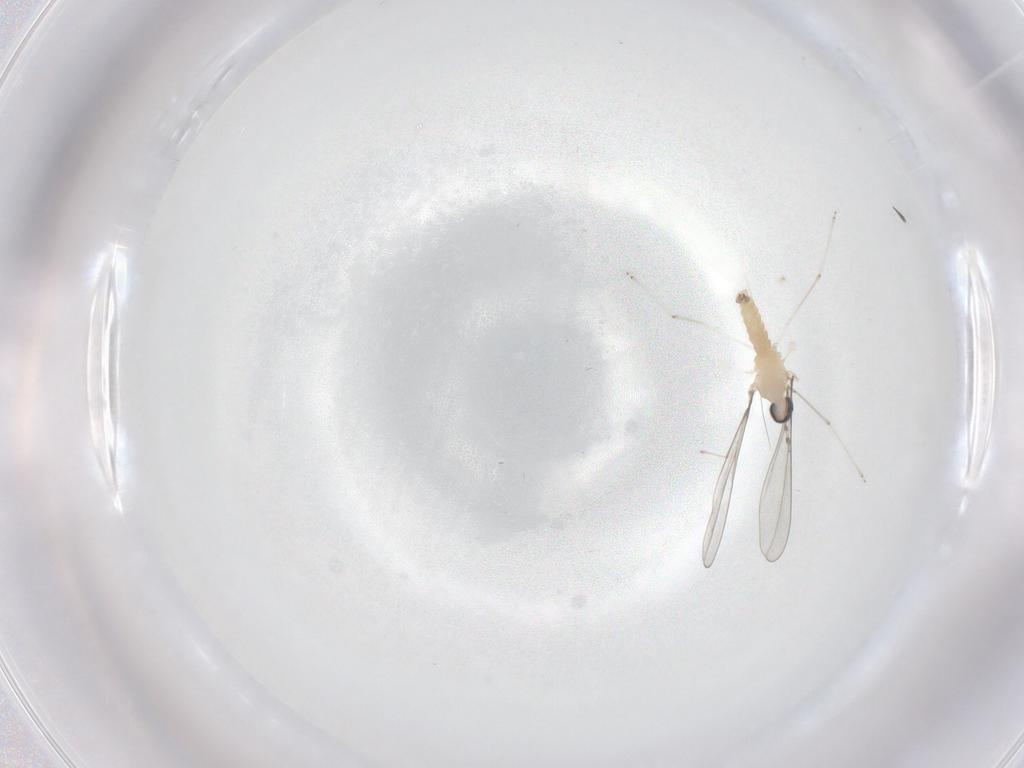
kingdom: Animalia
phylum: Arthropoda
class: Insecta
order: Diptera
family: Cecidomyiidae
